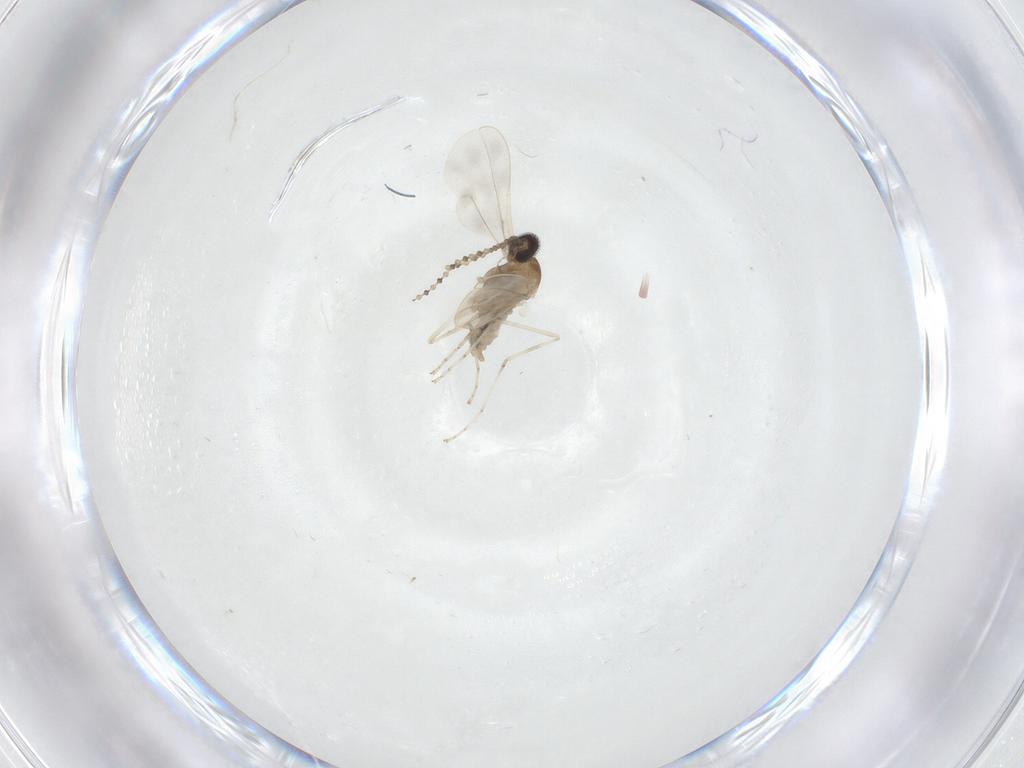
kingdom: Animalia
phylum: Arthropoda
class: Insecta
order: Diptera
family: Cecidomyiidae
